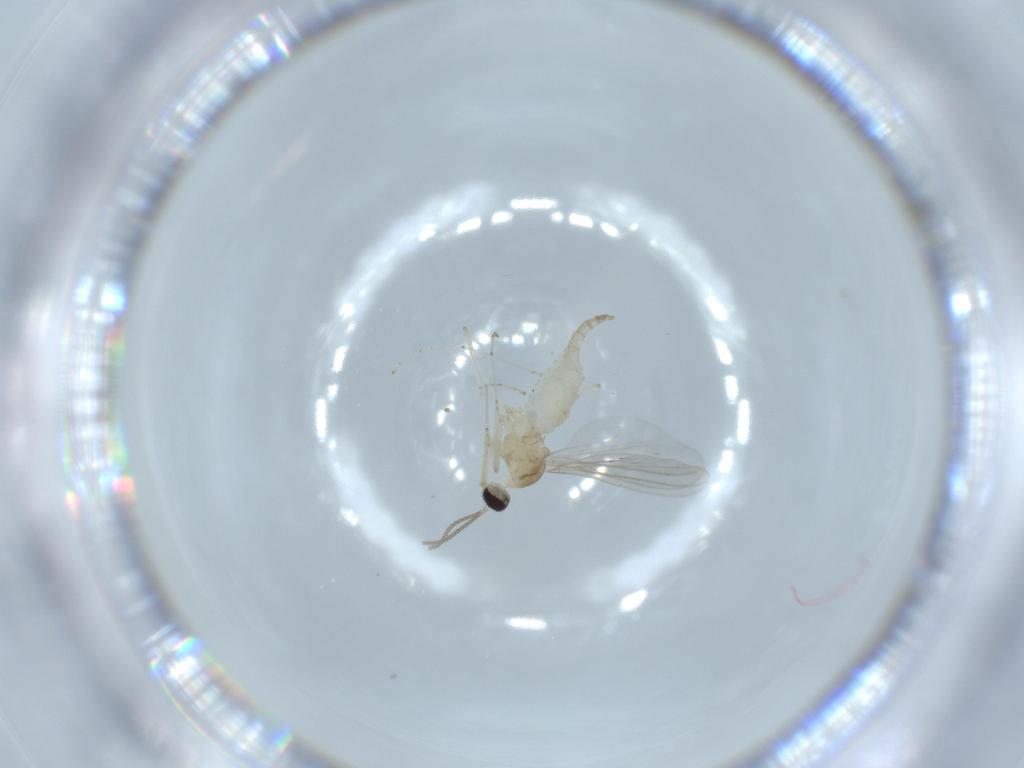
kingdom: Animalia
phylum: Arthropoda
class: Insecta
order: Diptera
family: Cecidomyiidae
